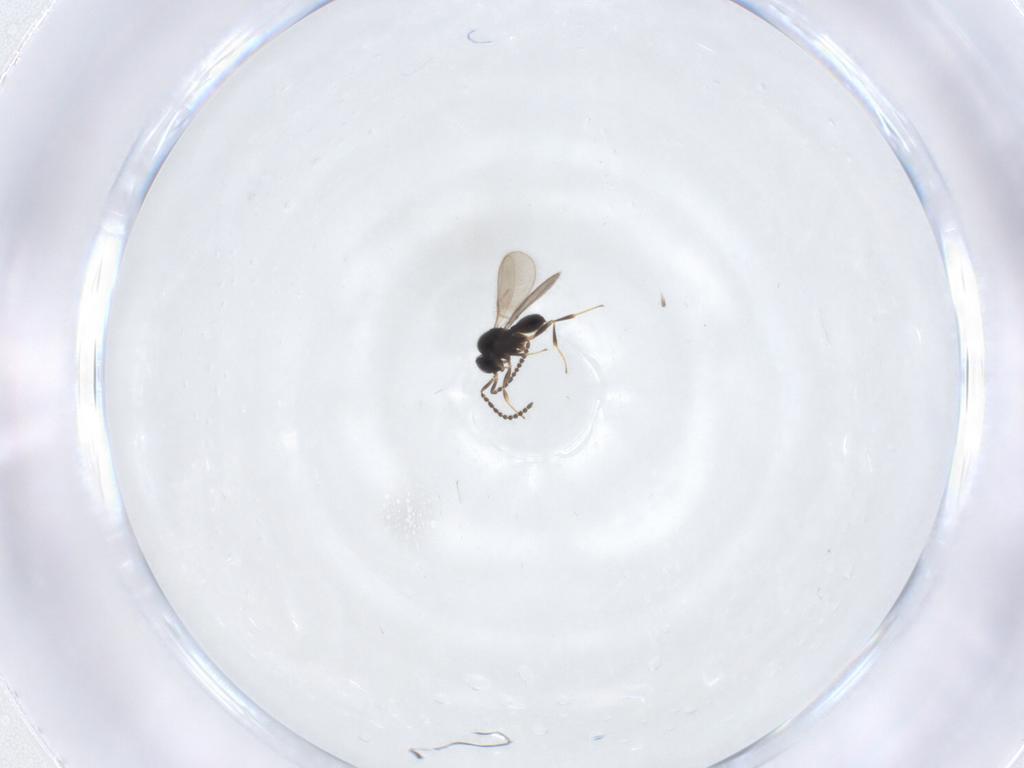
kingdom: Animalia
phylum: Arthropoda
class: Insecta
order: Hymenoptera
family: Scelionidae
